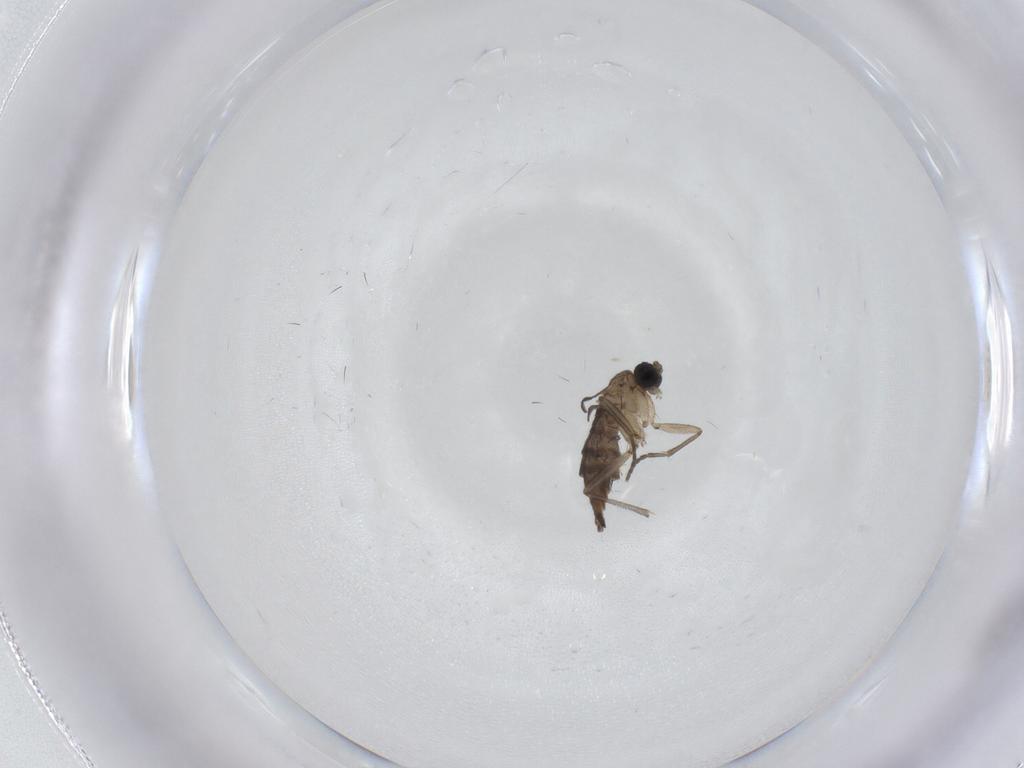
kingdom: Animalia
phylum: Arthropoda
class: Insecta
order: Diptera
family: Sciaridae
